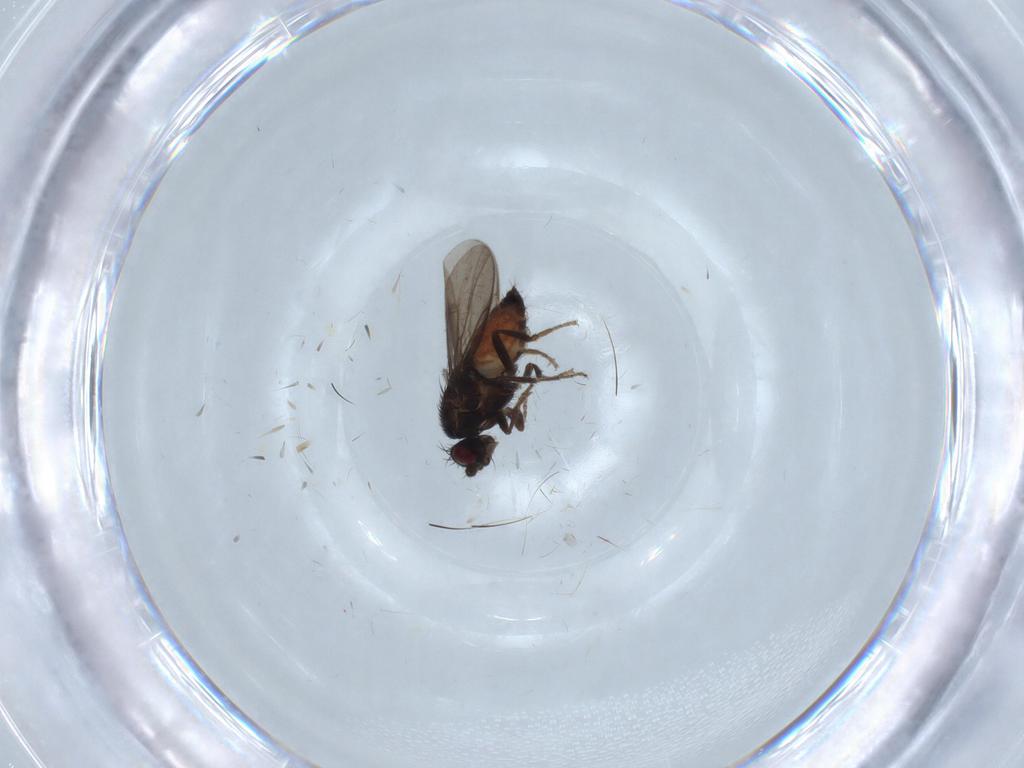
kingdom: Animalia
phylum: Arthropoda
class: Insecta
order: Diptera
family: Sphaeroceridae
